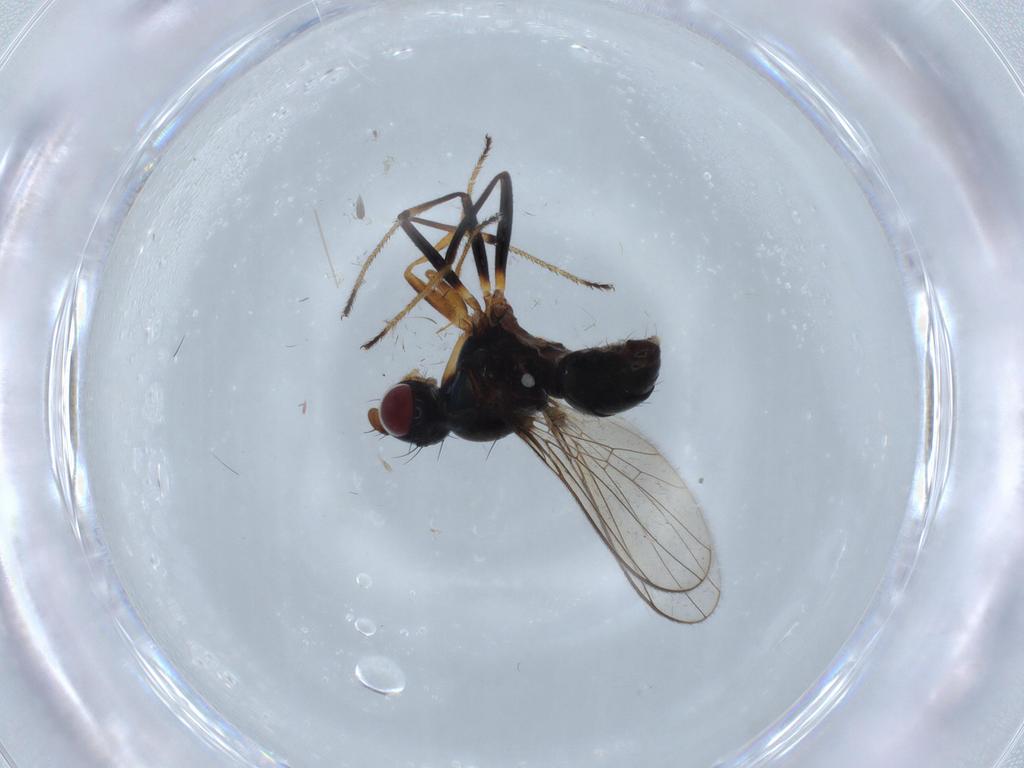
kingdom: Animalia
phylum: Arthropoda
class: Insecta
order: Diptera
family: Sepsidae
